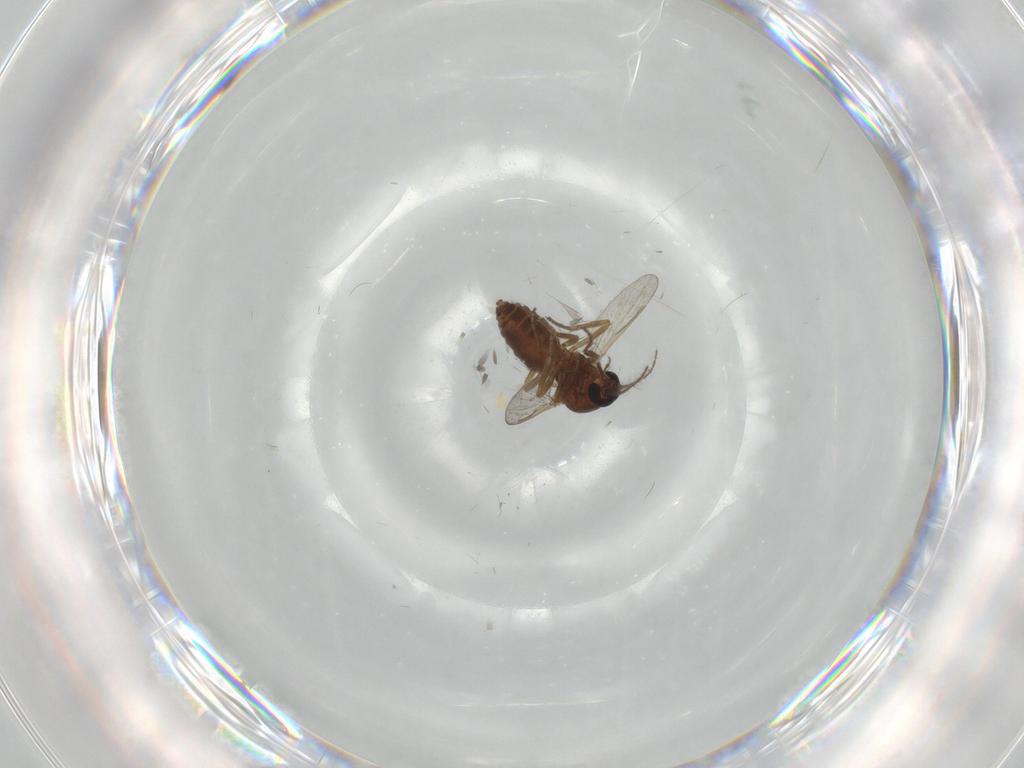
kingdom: Animalia
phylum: Arthropoda
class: Insecta
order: Diptera
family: Ceratopogonidae
